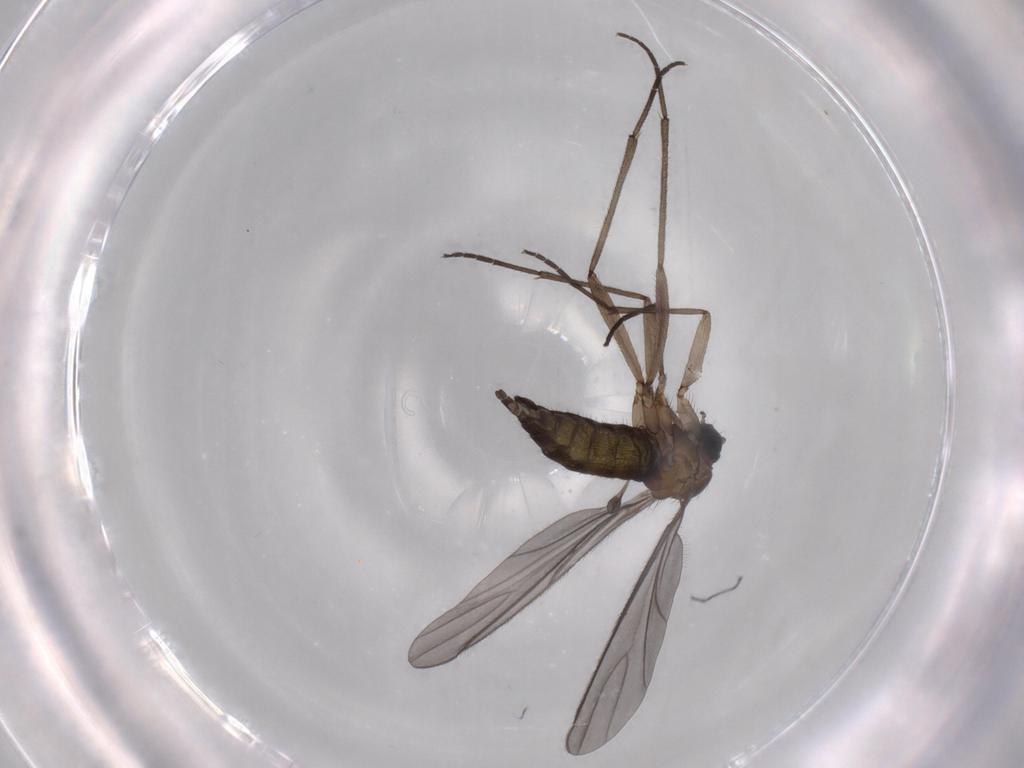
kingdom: Animalia
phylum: Arthropoda
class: Insecta
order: Diptera
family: Sciaridae
